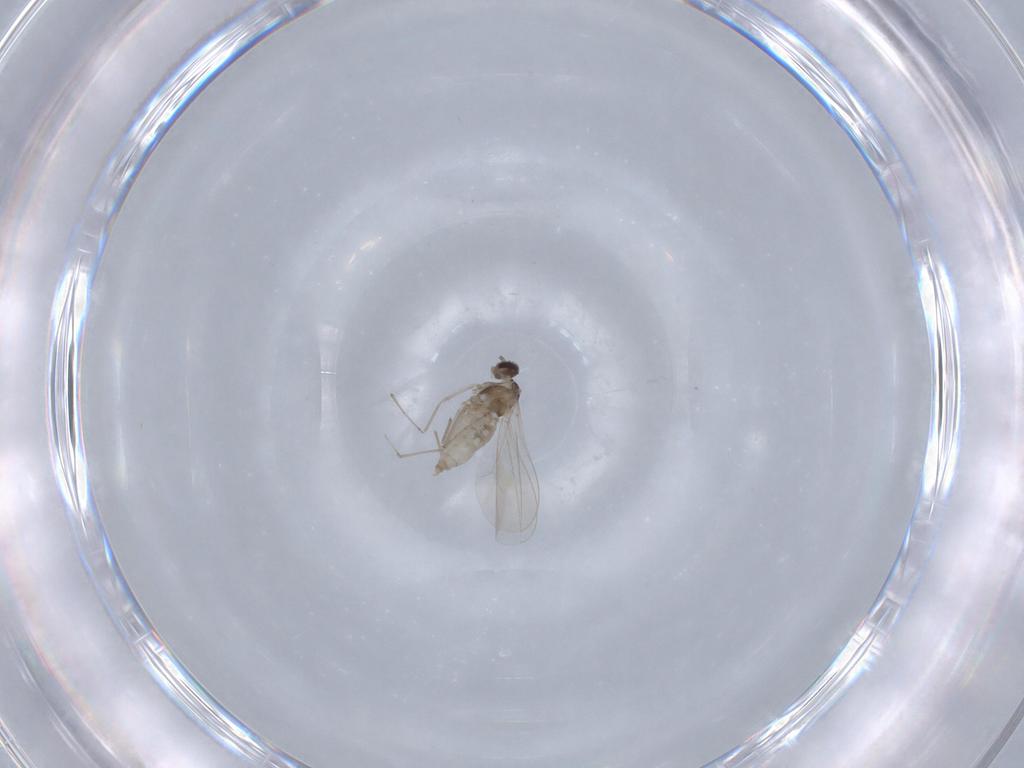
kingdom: Animalia
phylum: Arthropoda
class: Insecta
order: Diptera
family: Cecidomyiidae
